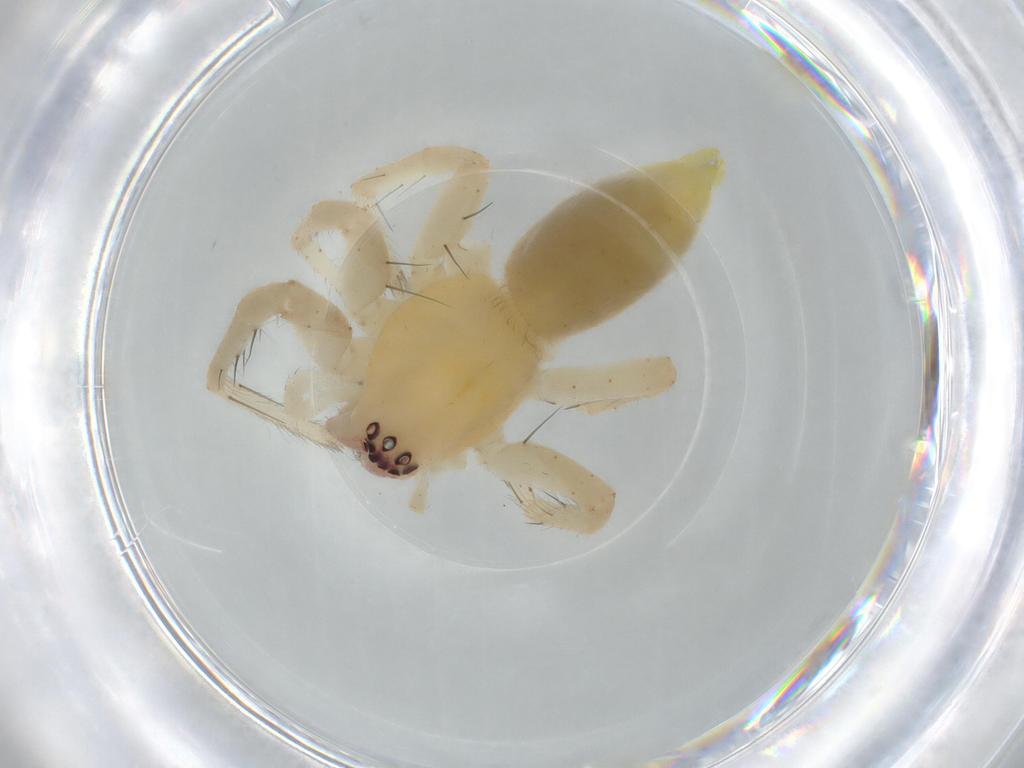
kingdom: Animalia
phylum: Arthropoda
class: Arachnida
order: Araneae
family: Anyphaenidae
